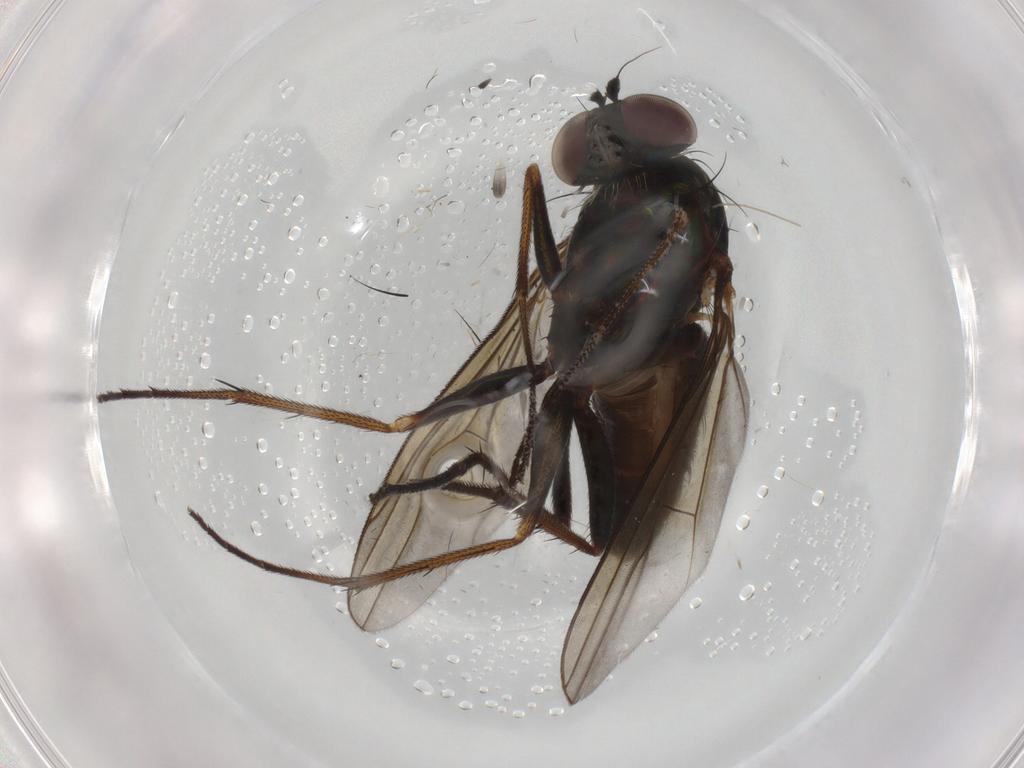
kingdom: Animalia
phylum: Arthropoda
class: Insecta
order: Diptera
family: Dolichopodidae
